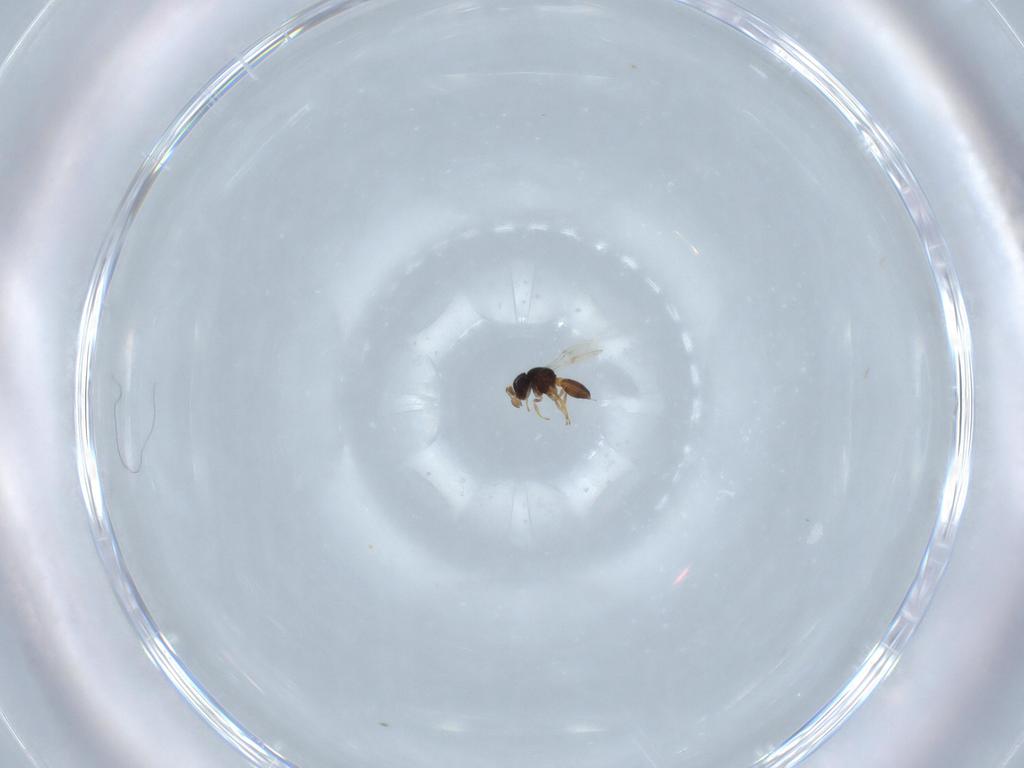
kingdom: Animalia
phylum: Arthropoda
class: Insecta
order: Hymenoptera
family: Scelionidae
